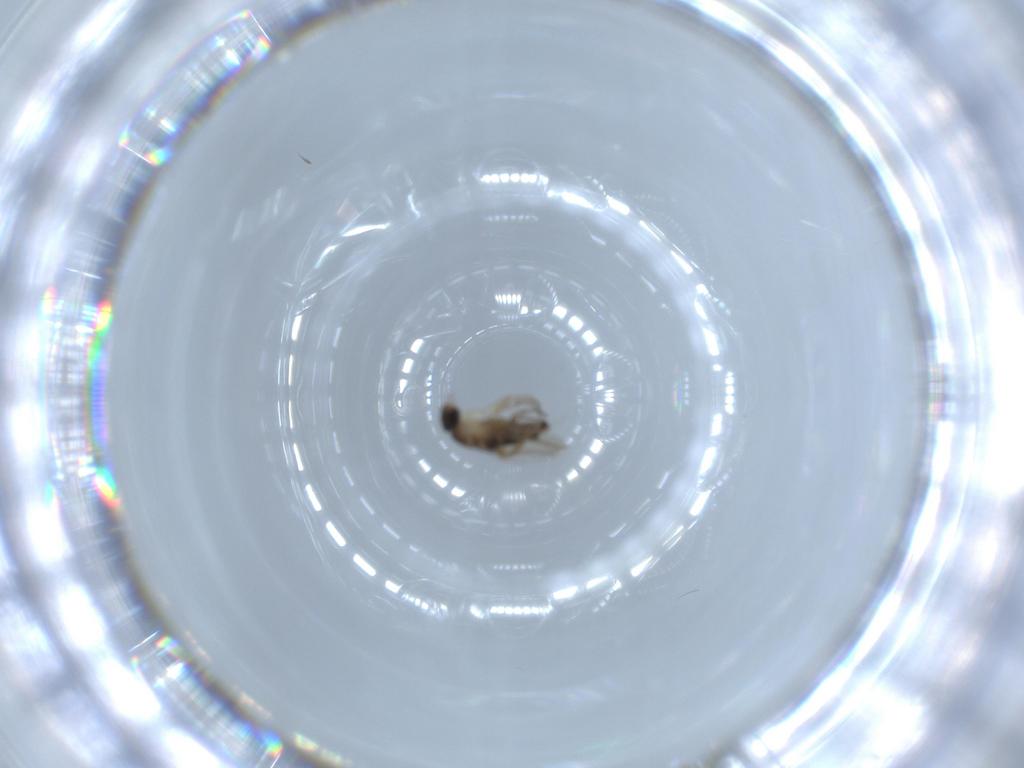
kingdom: Animalia
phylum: Arthropoda
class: Insecta
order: Diptera
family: Phoridae
